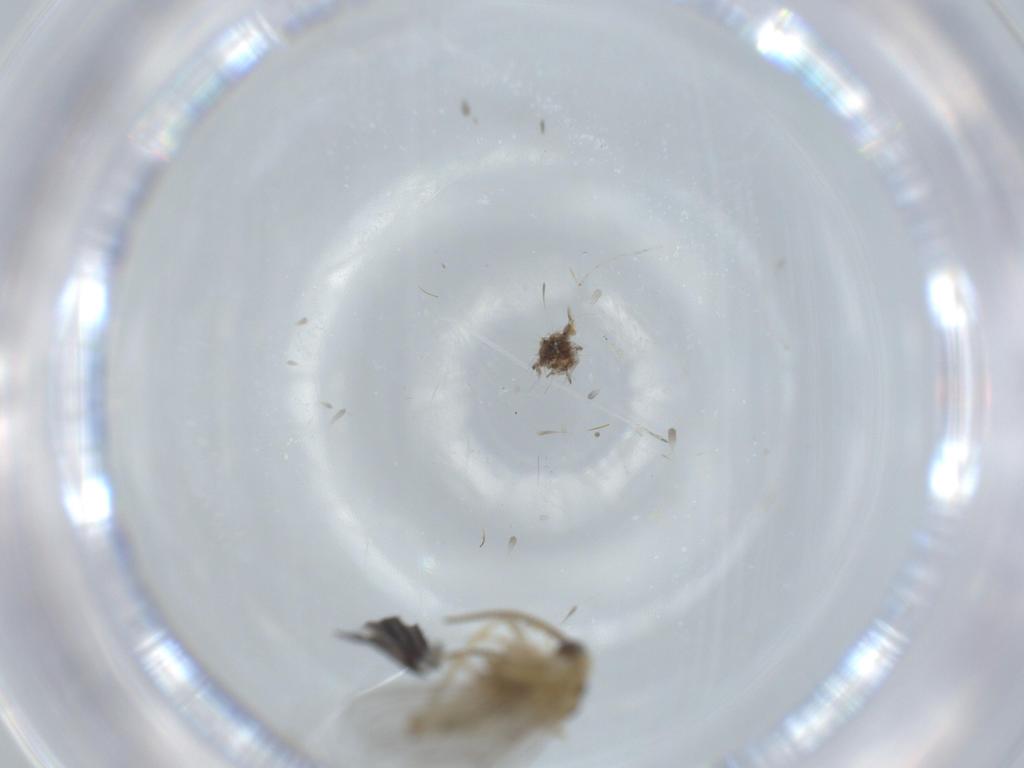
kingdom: Animalia
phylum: Arthropoda
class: Insecta
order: Neuroptera
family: Coniopterygidae
